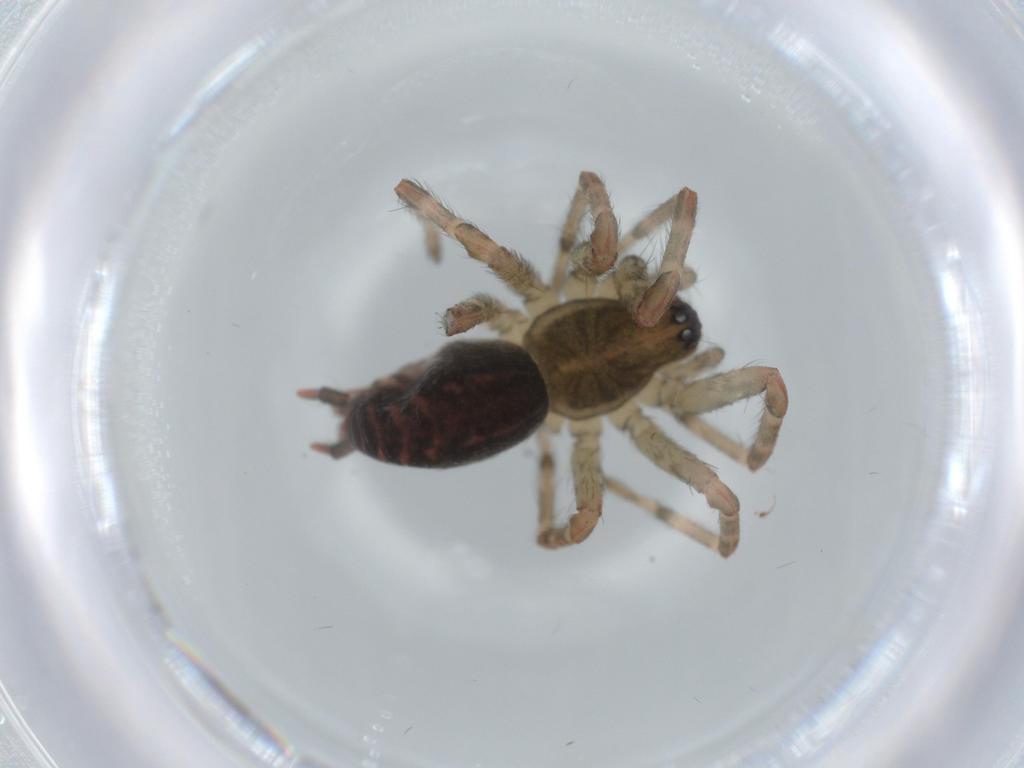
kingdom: Animalia
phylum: Arthropoda
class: Arachnida
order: Araneae
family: Agelenidae
